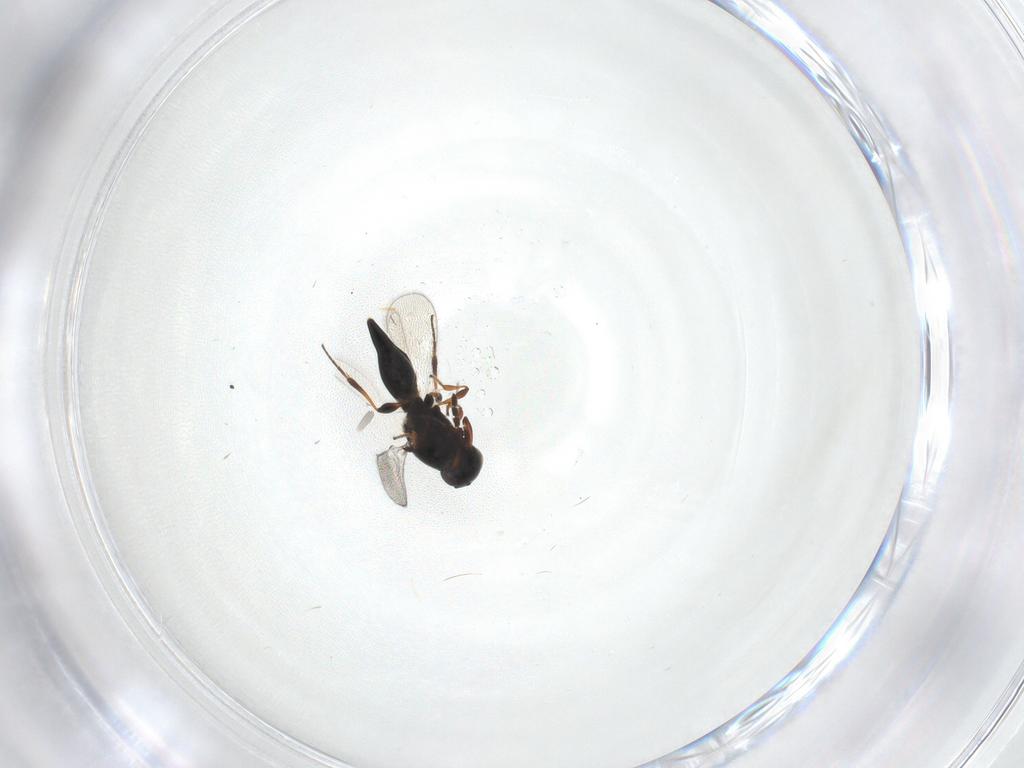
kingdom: Animalia
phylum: Arthropoda
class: Insecta
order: Hymenoptera
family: Platygastridae
